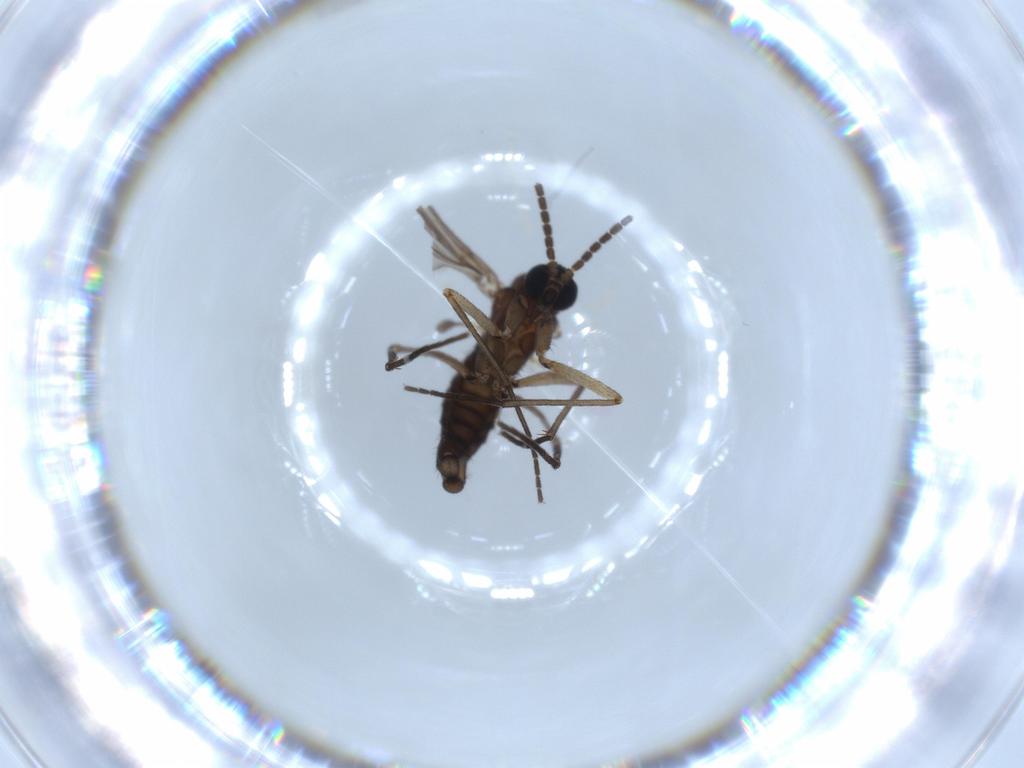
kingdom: Animalia
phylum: Arthropoda
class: Insecta
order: Diptera
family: Sciaridae
